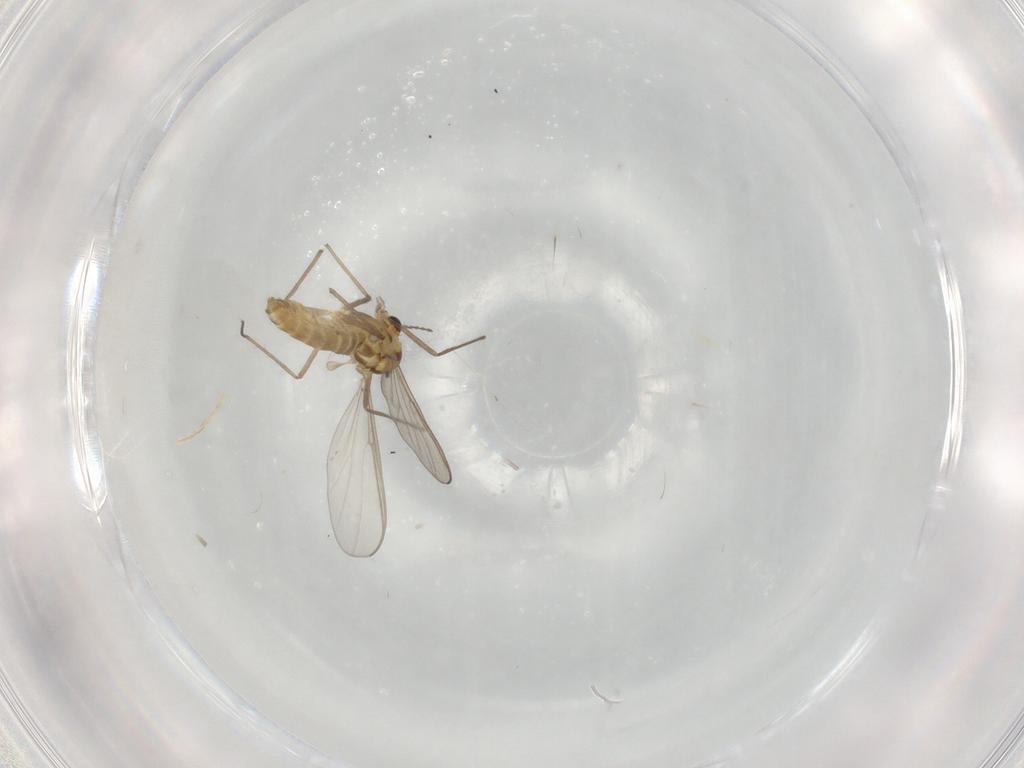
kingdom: Animalia
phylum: Arthropoda
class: Insecta
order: Diptera
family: Chironomidae
